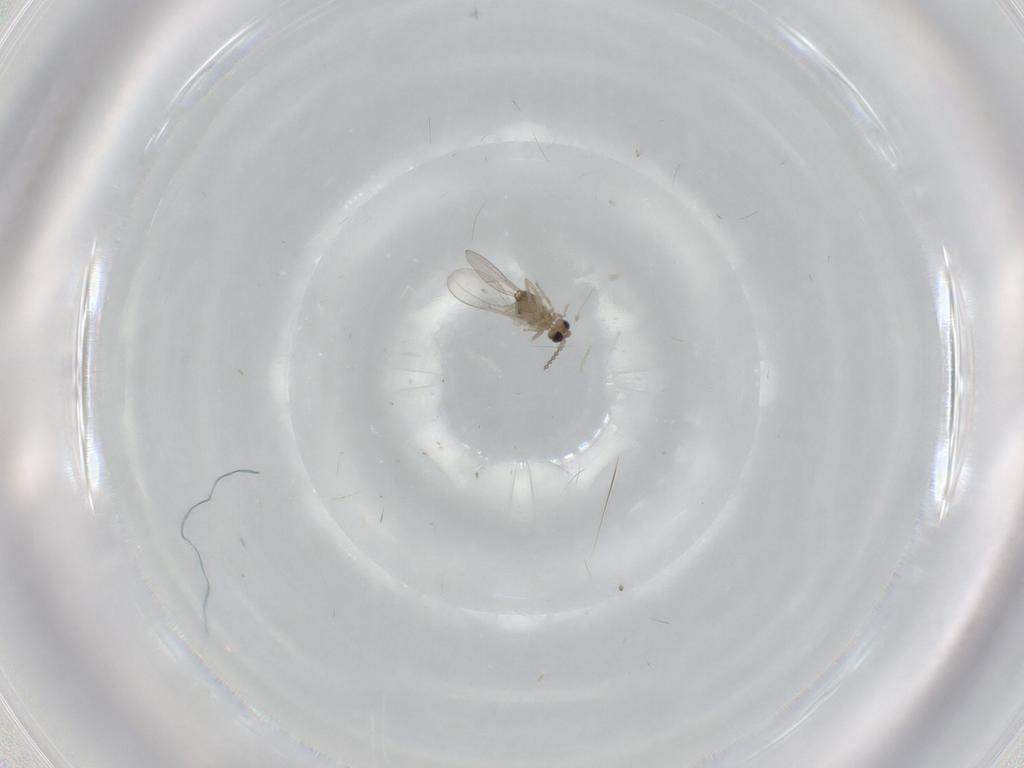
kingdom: Animalia
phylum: Arthropoda
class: Insecta
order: Diptera
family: Cecidomyiidae
